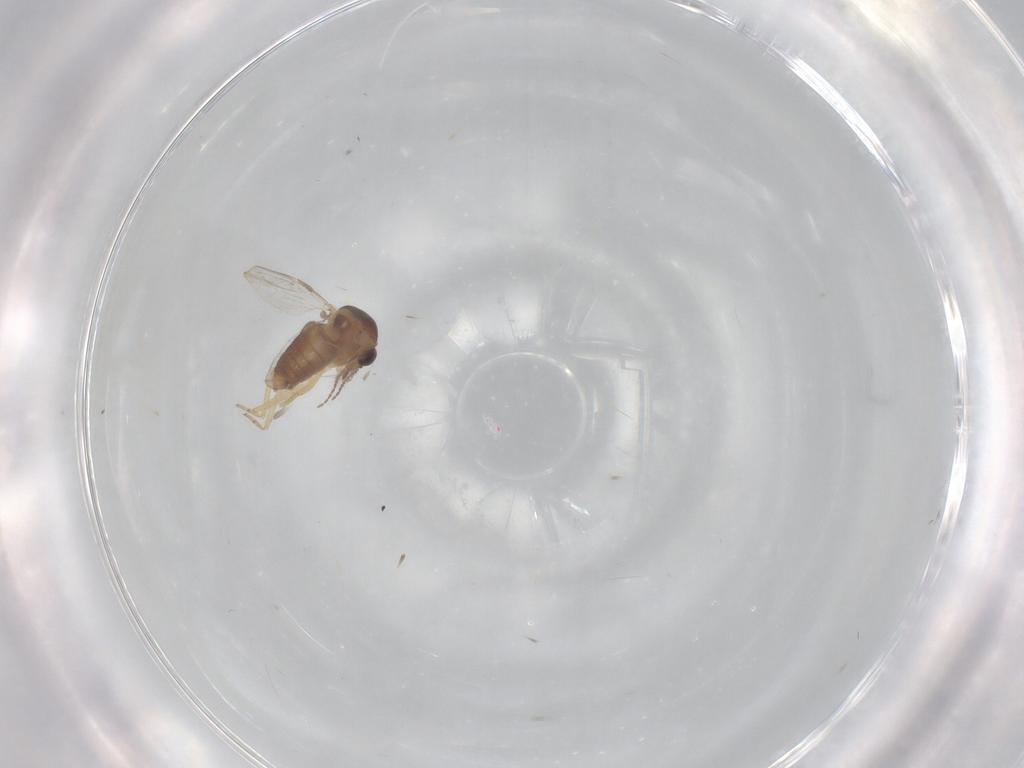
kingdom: Animalia
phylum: Arthropoda
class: Insecta
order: Diptera
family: Ceratopogonidae
